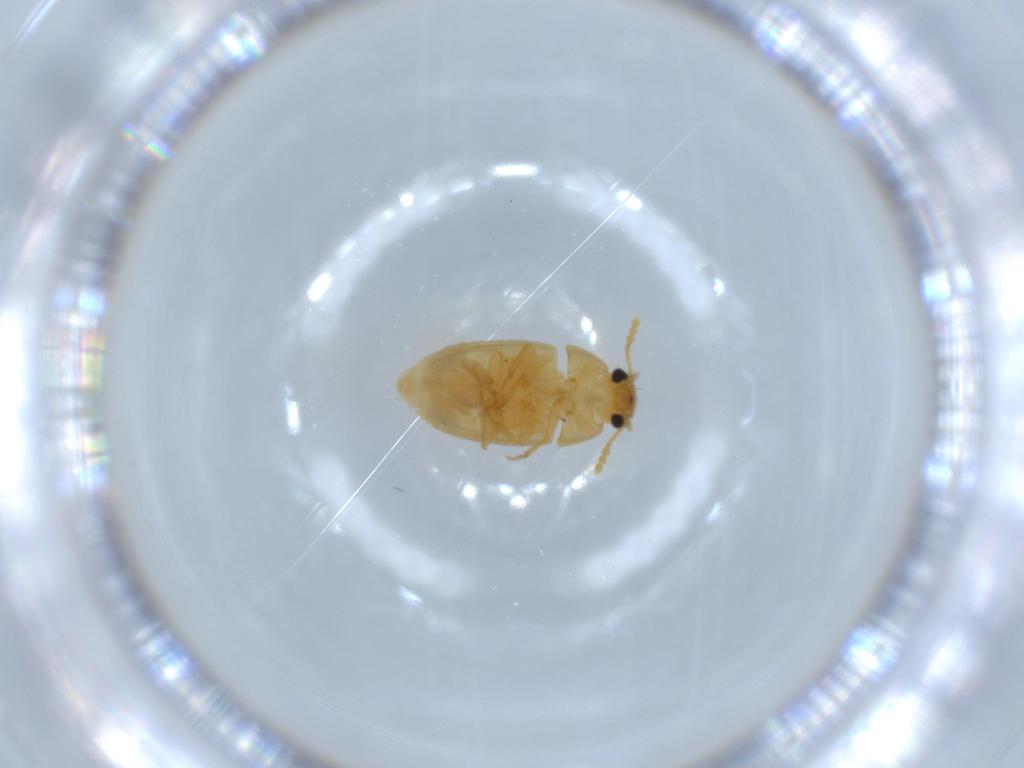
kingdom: Animalia
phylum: Arthropoda
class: Insecta
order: Coleoptera
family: Mycetophagidae
